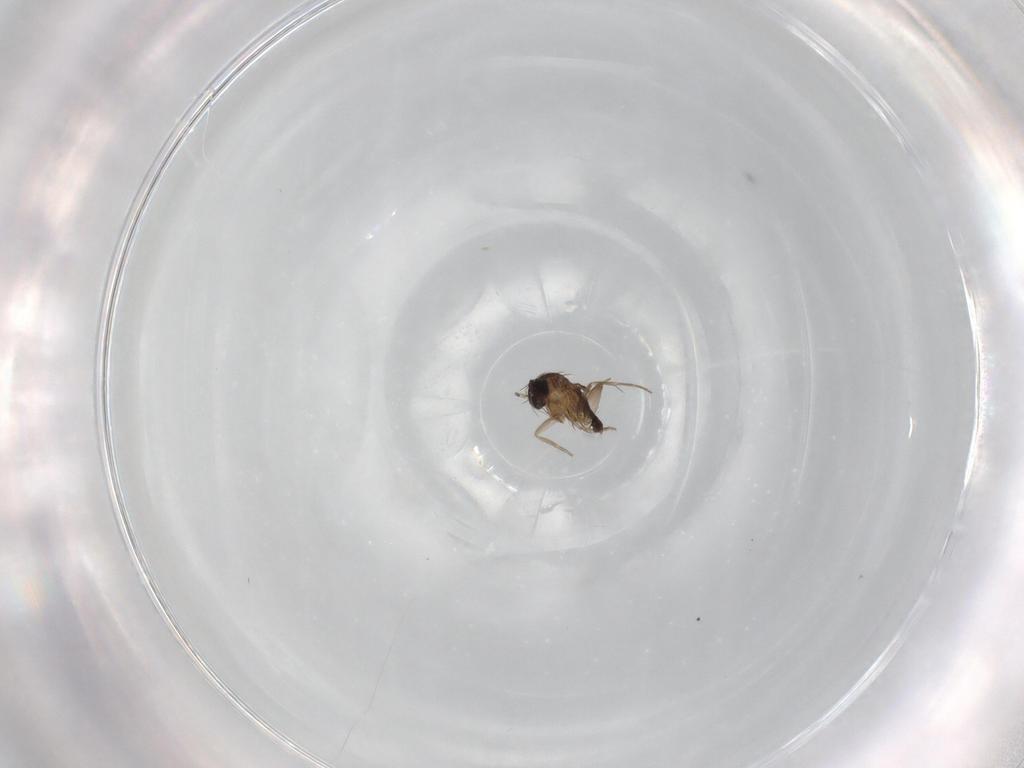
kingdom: Animalia
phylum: Arthropoda
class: Insecta
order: Diptera
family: Phoridae
